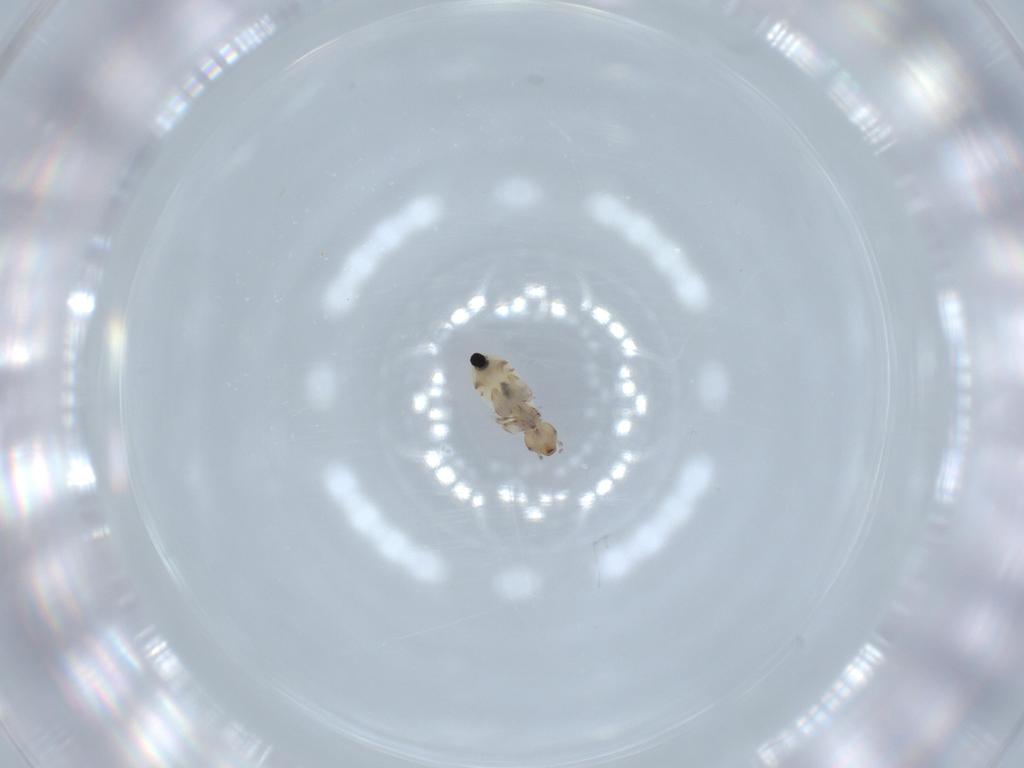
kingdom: Animalia
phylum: Arthropoda
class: Insecta
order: Psocodea
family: Liposcelididae
